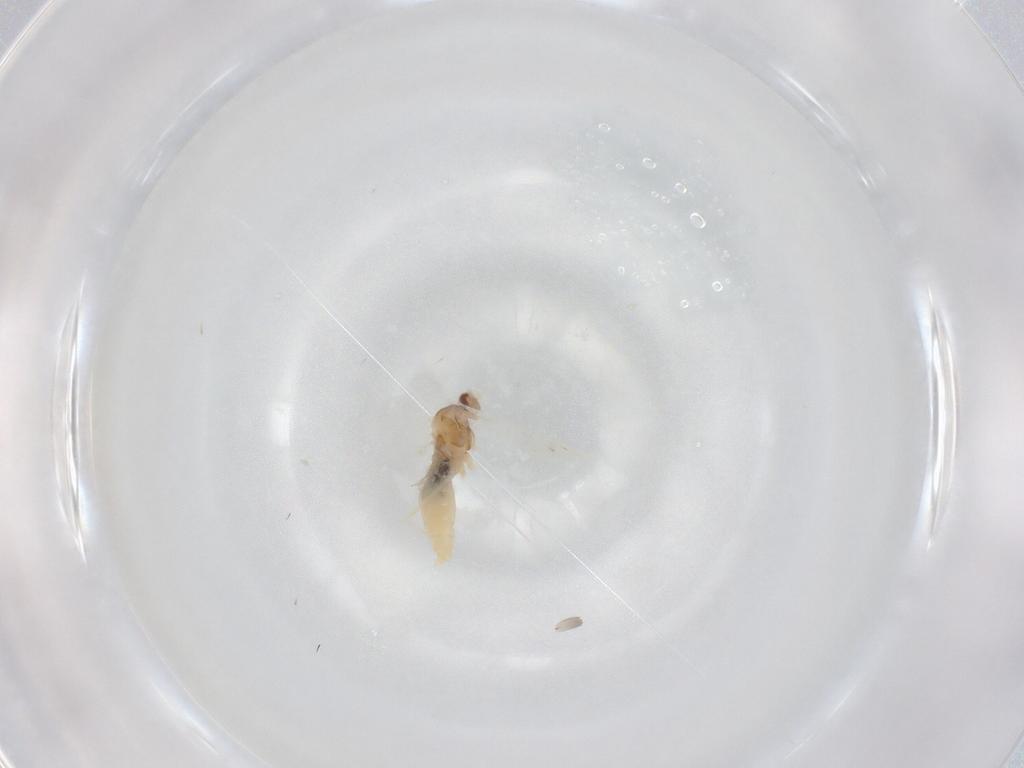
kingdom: Animalia
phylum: Arthropoda
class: Insecta
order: Diptera
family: Cecidomyiidae
